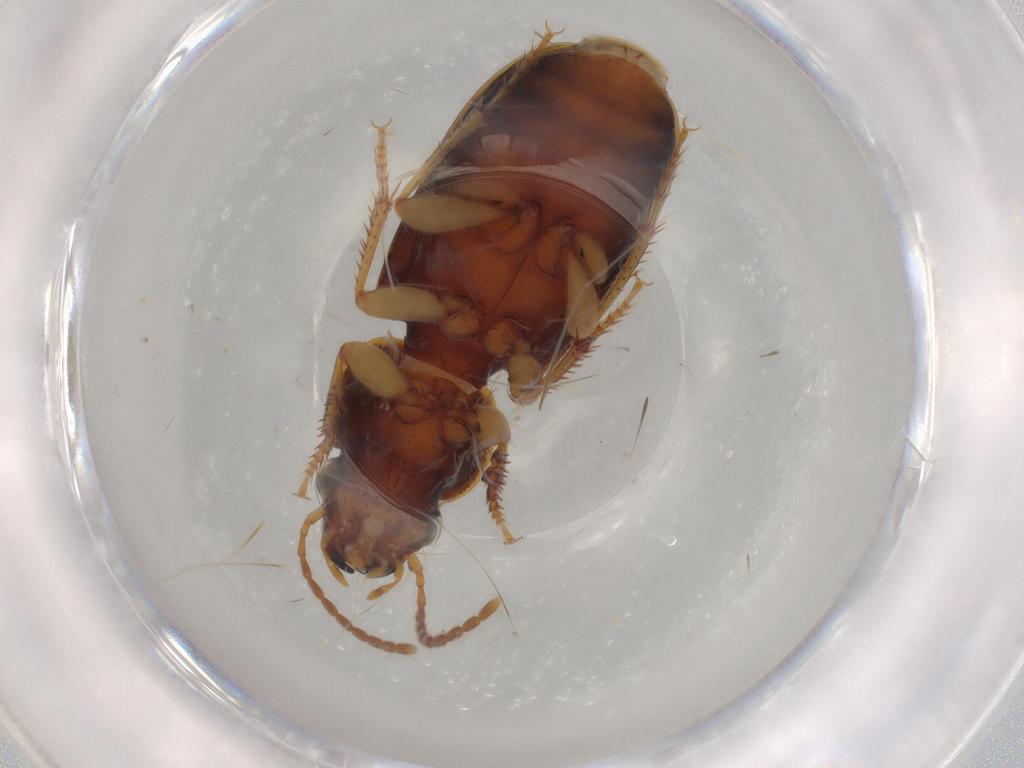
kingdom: Animalia
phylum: Arthropoda
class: Insecta
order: Coleoptera
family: Carabidae
